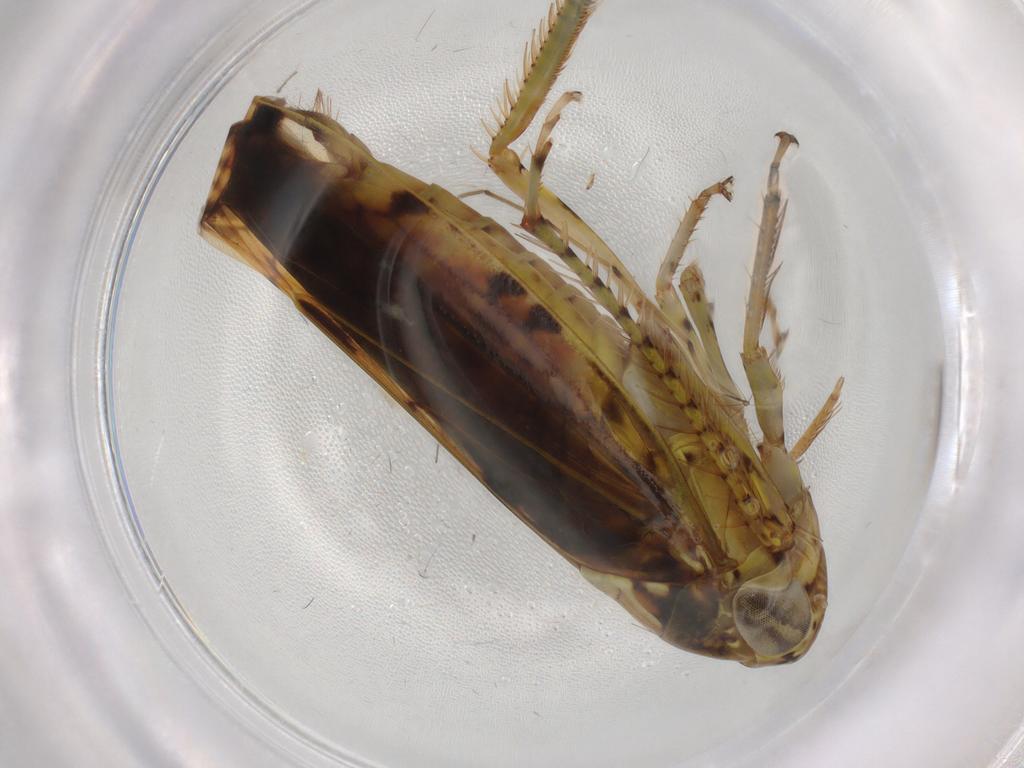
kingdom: Animalia
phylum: Arthropoda
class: Insecta
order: Hemiptera
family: Cicadellidae
